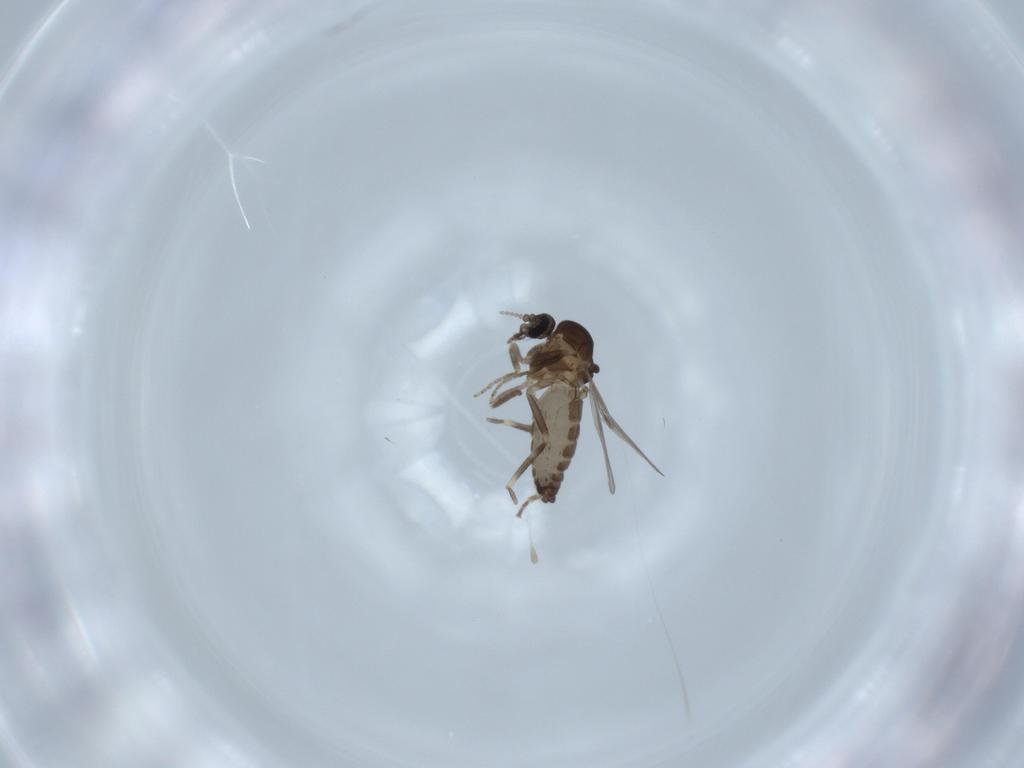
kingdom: Animalia
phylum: Arthropoda
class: Insecta
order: Diptera
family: Ceratopogonidae
